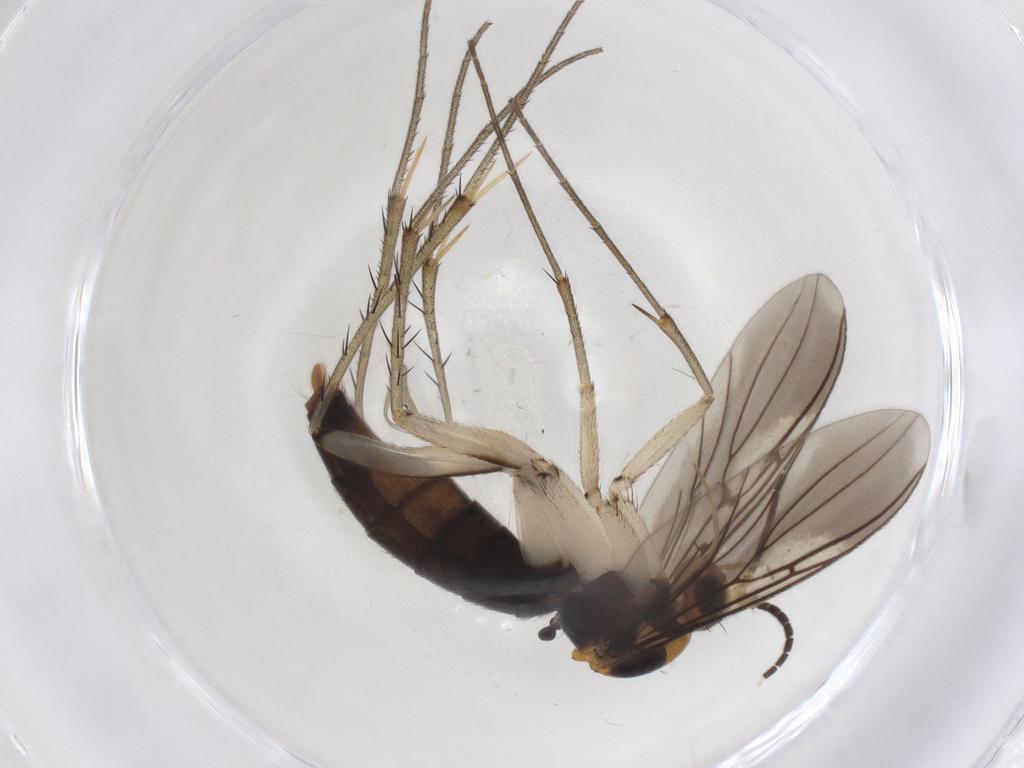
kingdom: Animalia
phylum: Arthropoda
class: Insecta
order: Diptera
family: Mycetophilidae
